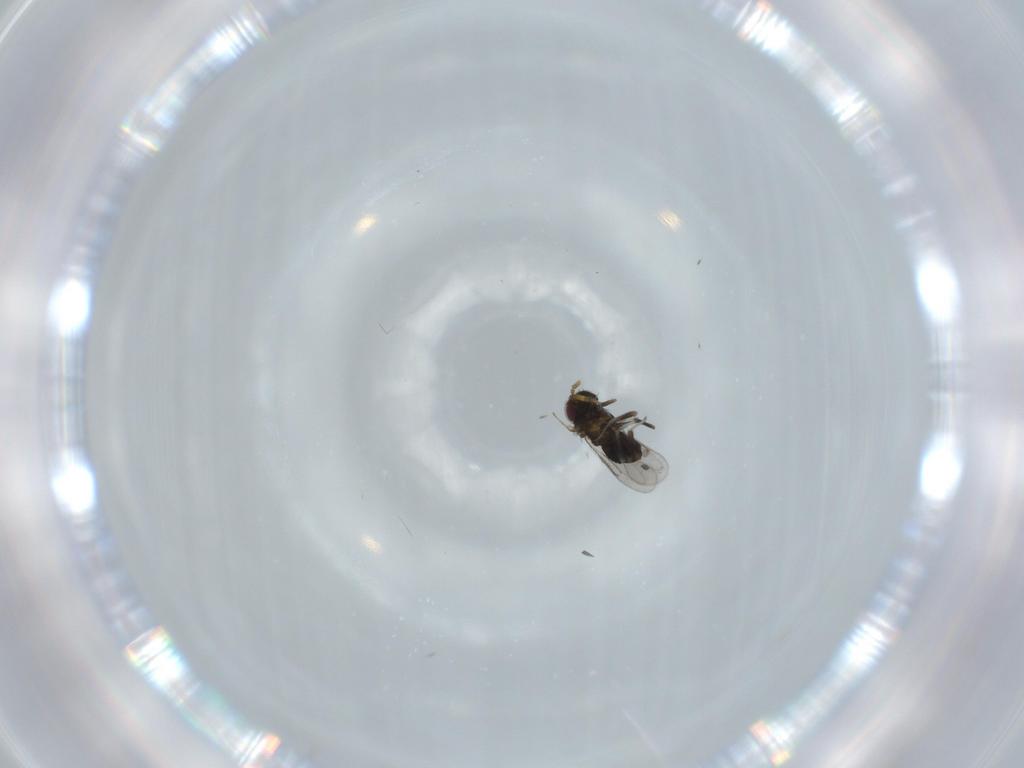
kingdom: Animalia
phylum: Arthropoda
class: Insecta
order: Hymenoptera
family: Aphelinidae
